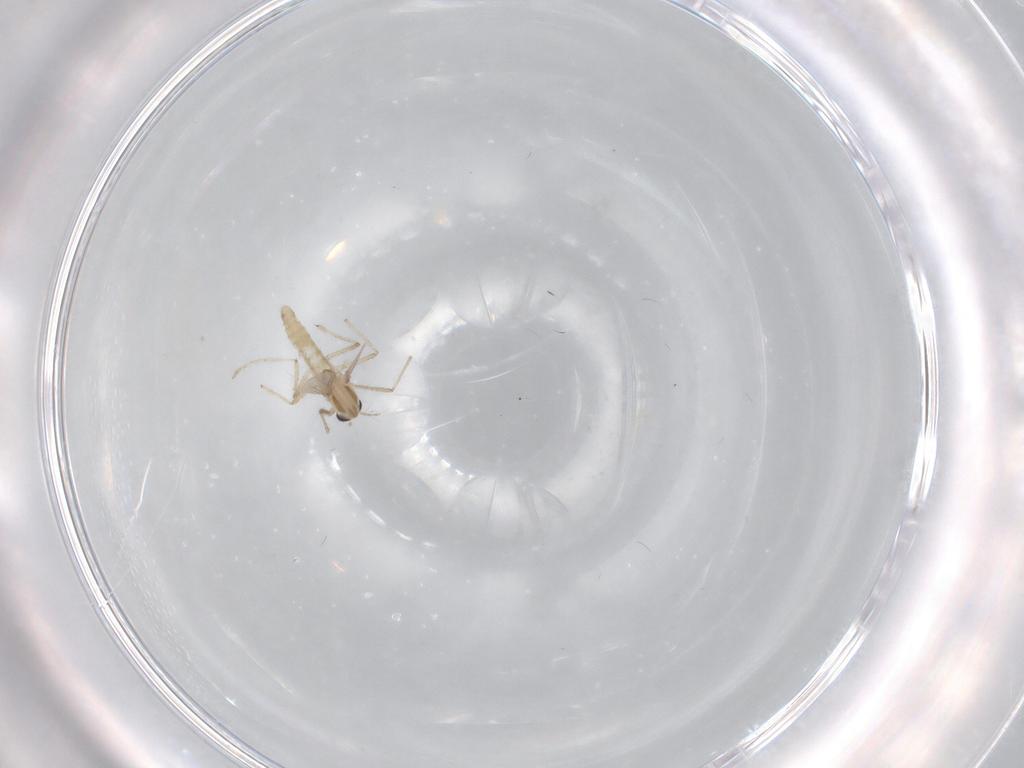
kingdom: Animalia
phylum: Arthropoda
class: Insecta
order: Diptera
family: Chironomidae
